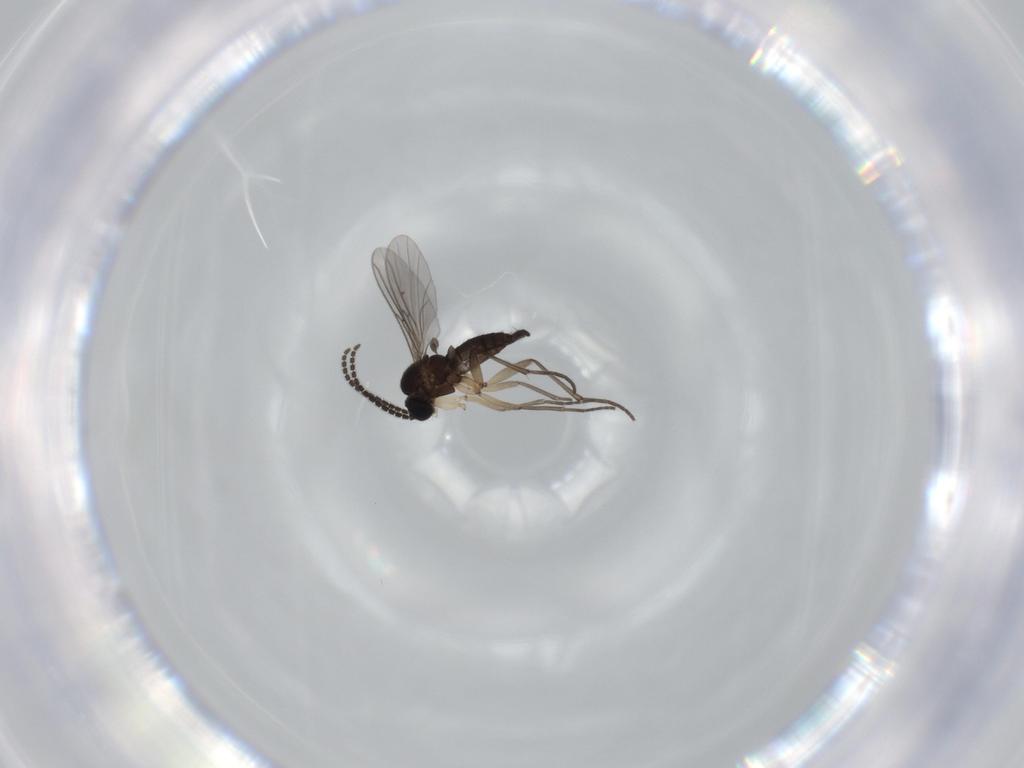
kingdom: Animalia
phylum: Arthropoda
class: Insecta
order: Diptera
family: Sciaridae
